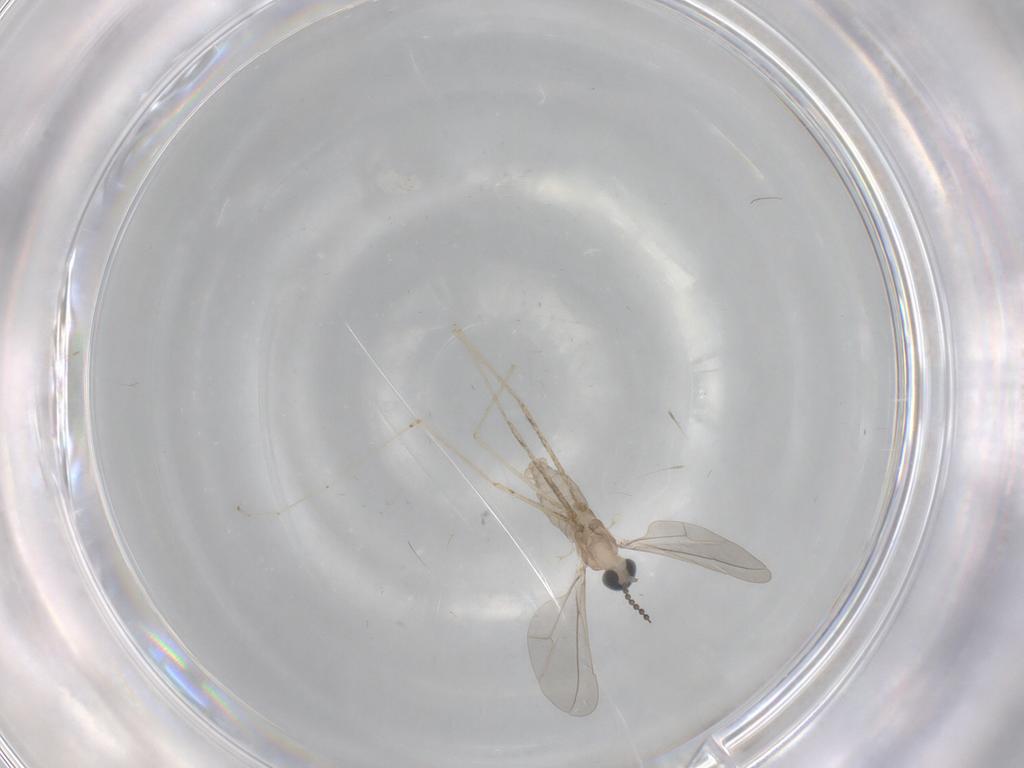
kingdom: Animalia
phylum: Arthropoda
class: Insecta
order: Diptera
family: Cecidomyiidae
